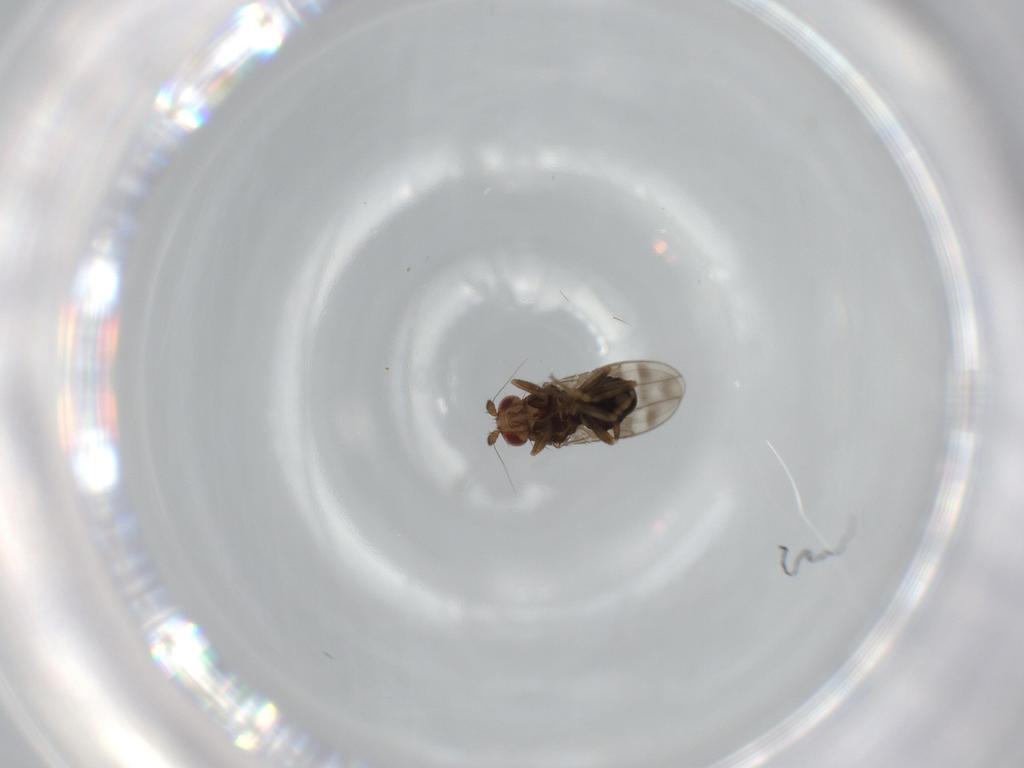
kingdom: Animalia
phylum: Arthropoda
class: Insecta
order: Diptera
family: Sphaeroceridae
